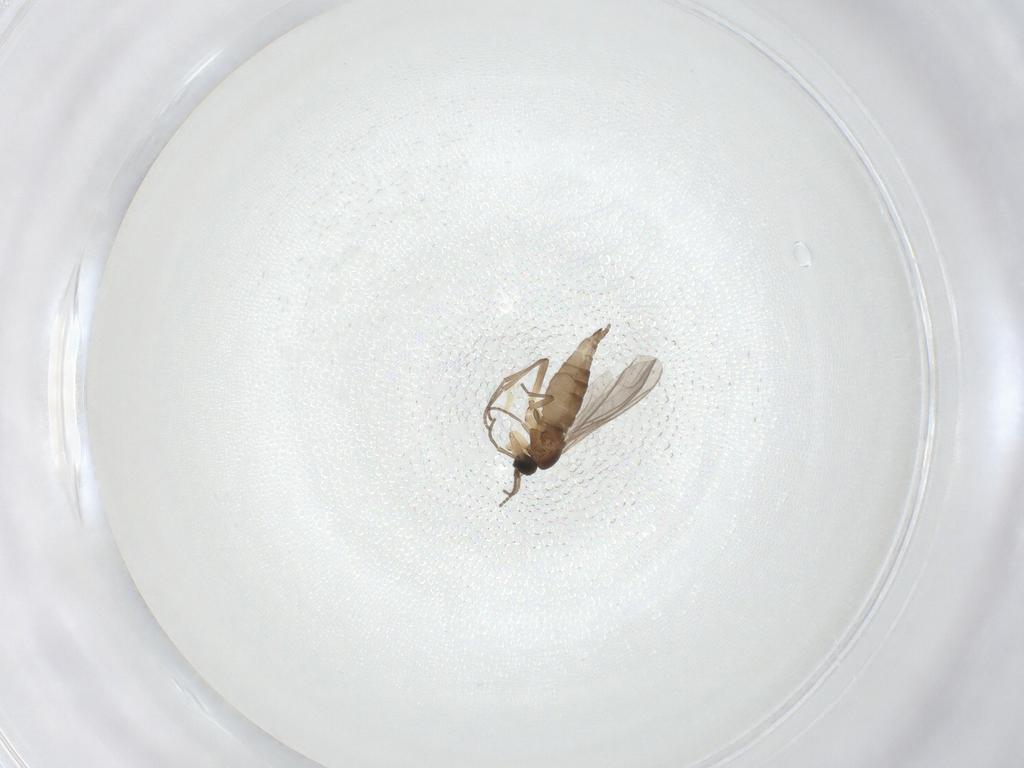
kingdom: Animalia
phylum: Arthropoda
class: Insecta
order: Diptera
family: Sciaridae
